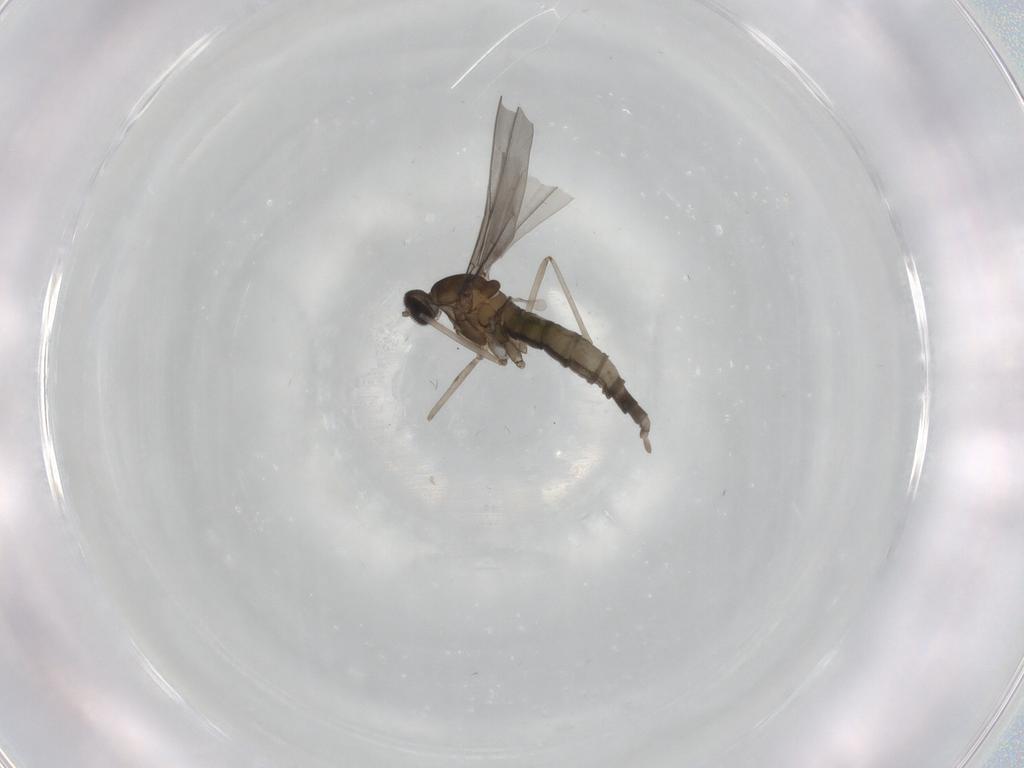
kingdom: Animalia
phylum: Arthropoda
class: Insecta
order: Diptera
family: Cecidomyiidae
